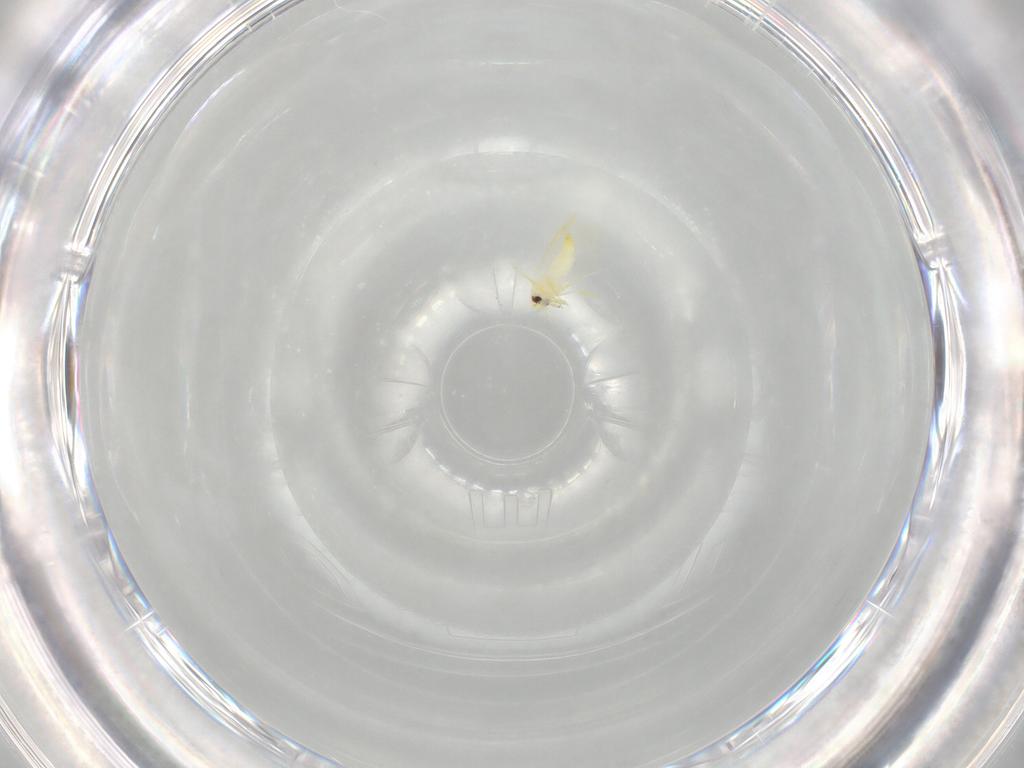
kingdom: Animalia
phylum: Arthropoda
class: Insecta
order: Hemiptera
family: Aleyrodidae
